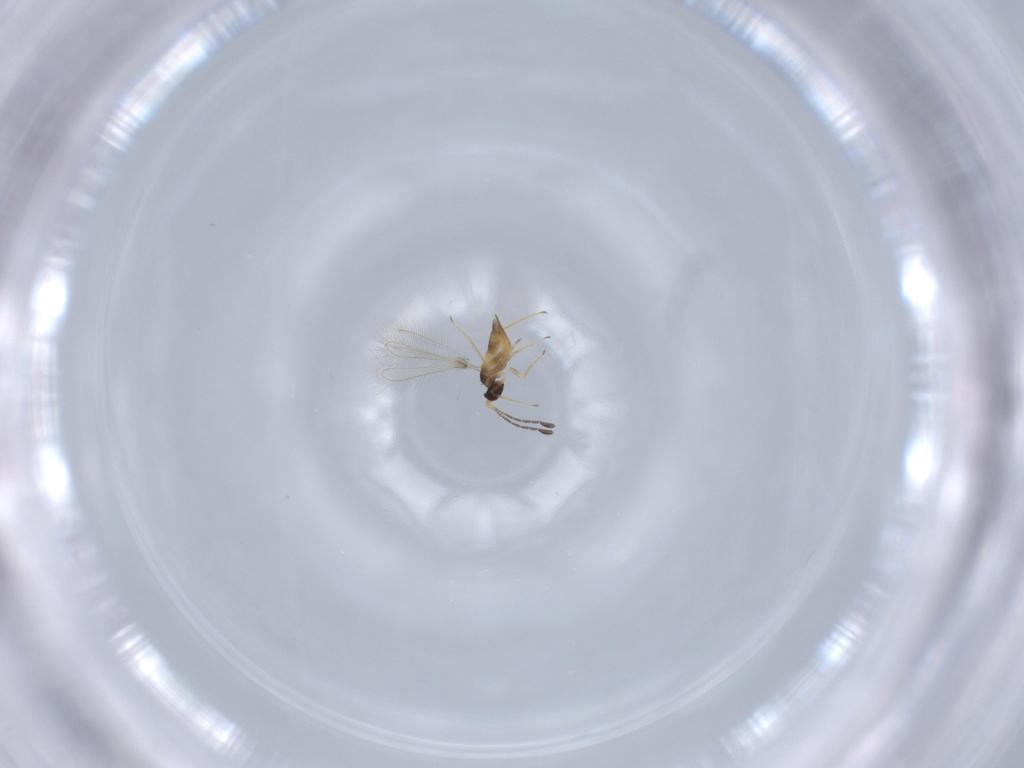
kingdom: Animalia
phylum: Arthropoda
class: Insecta
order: Hymenoptera
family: Mymaridae
